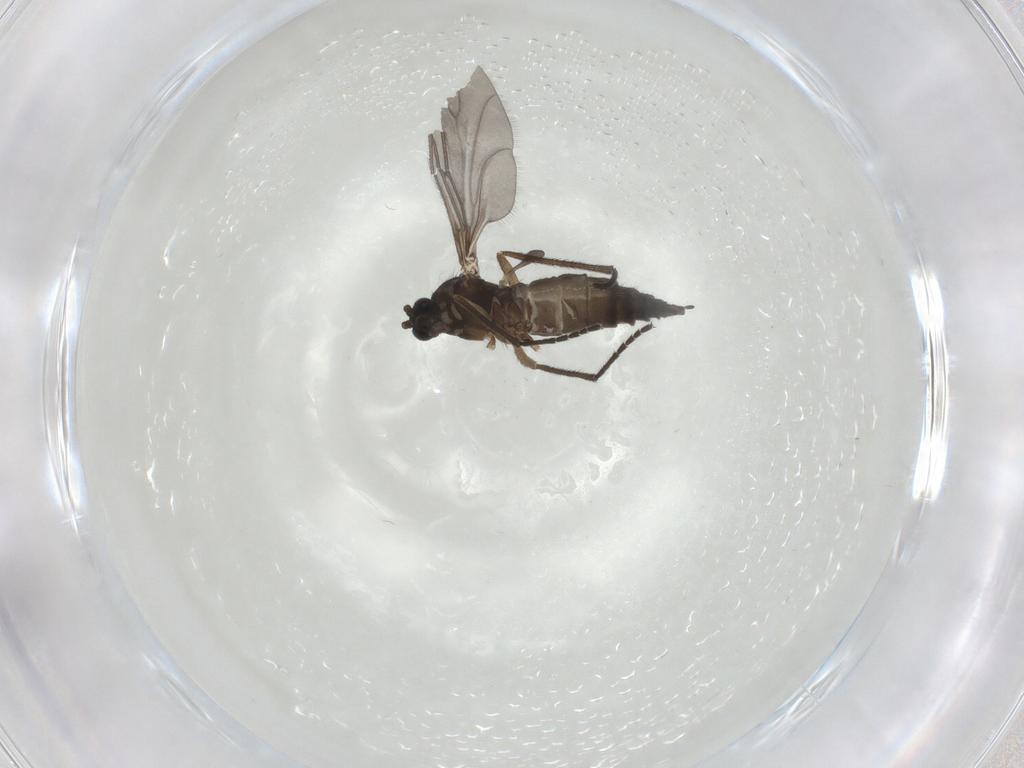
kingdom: Animalia
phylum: Arthropoda
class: Insecta
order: Diptera
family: Sciaridae
